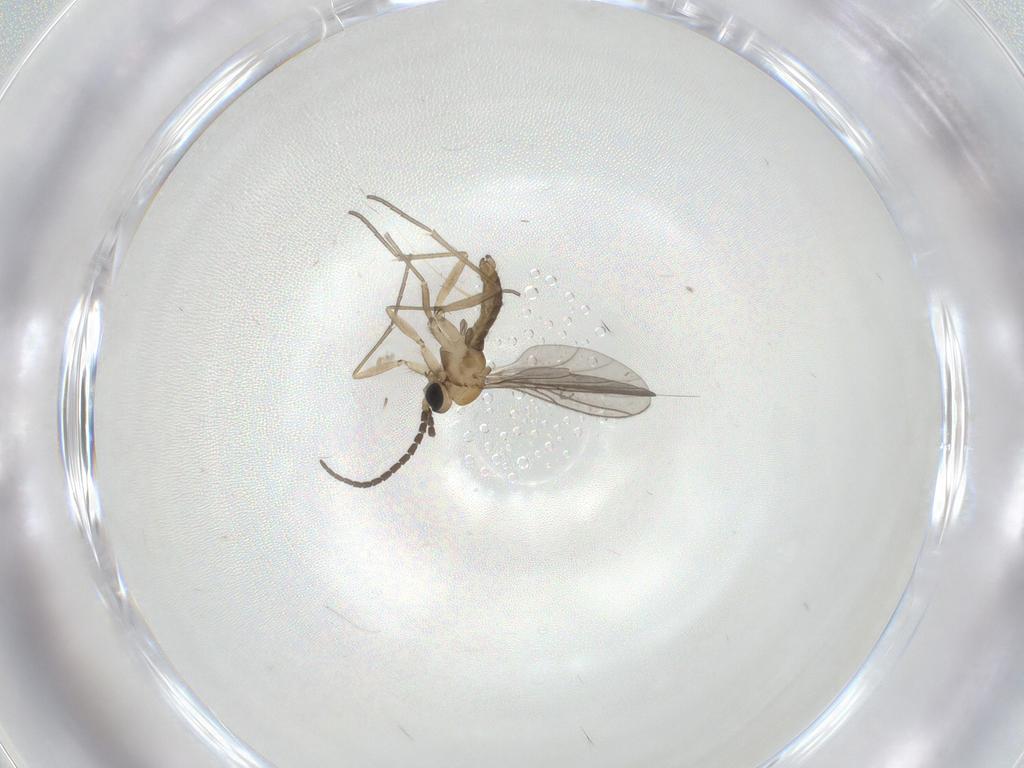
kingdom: Animalia
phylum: Arthropoda
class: Insecta
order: Diptera
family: Sciaridae
